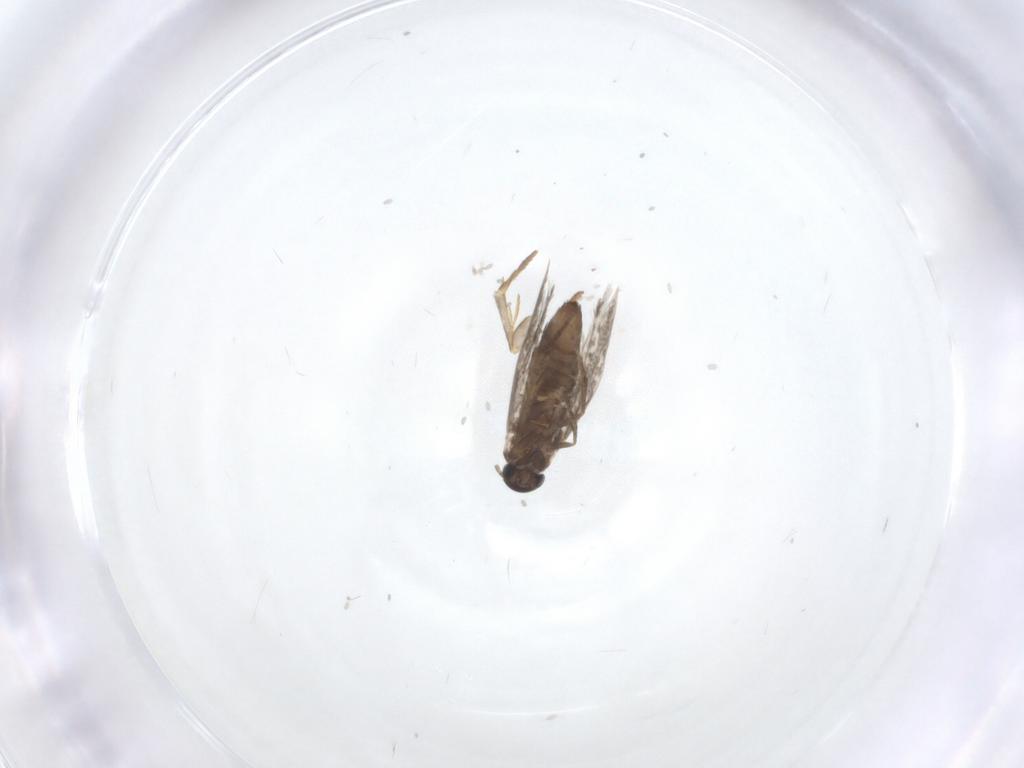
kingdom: Animalia
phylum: Arthropoda
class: Insecta
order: Lepidoptera
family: Heliozelidae
